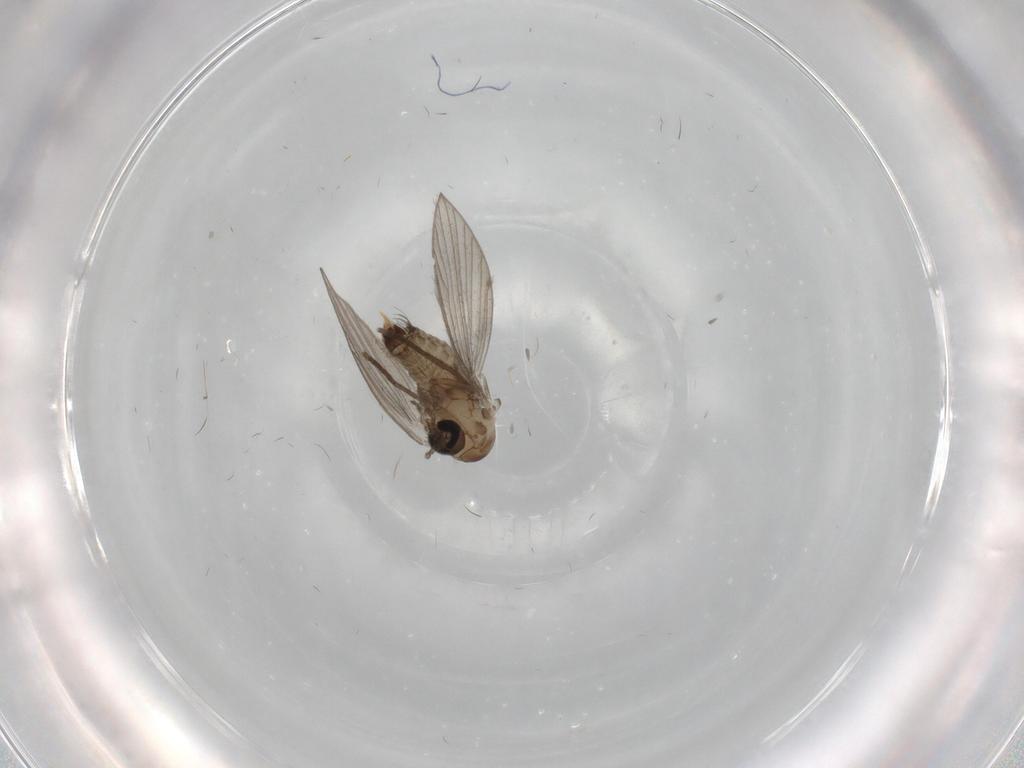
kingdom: Animalia
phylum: Arthropoda
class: Insecta
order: Diptera
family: Psychodidae
